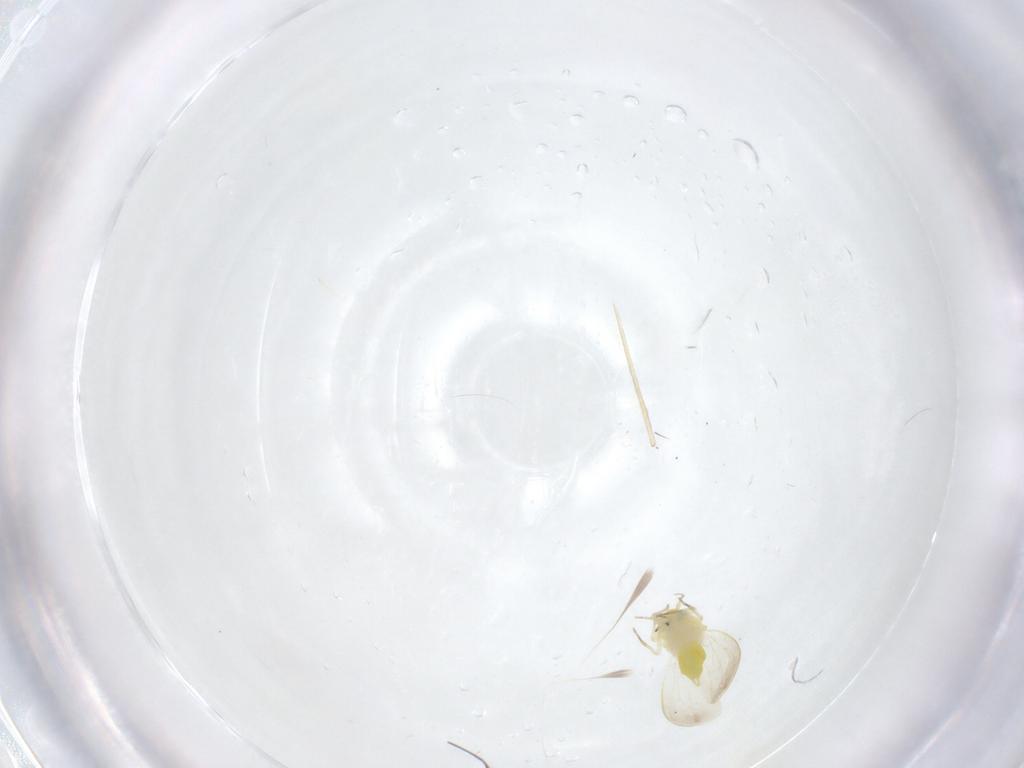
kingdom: Animalia
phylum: Arthropoda
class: Insecta
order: Hemiptera
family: Aleyrodidae
